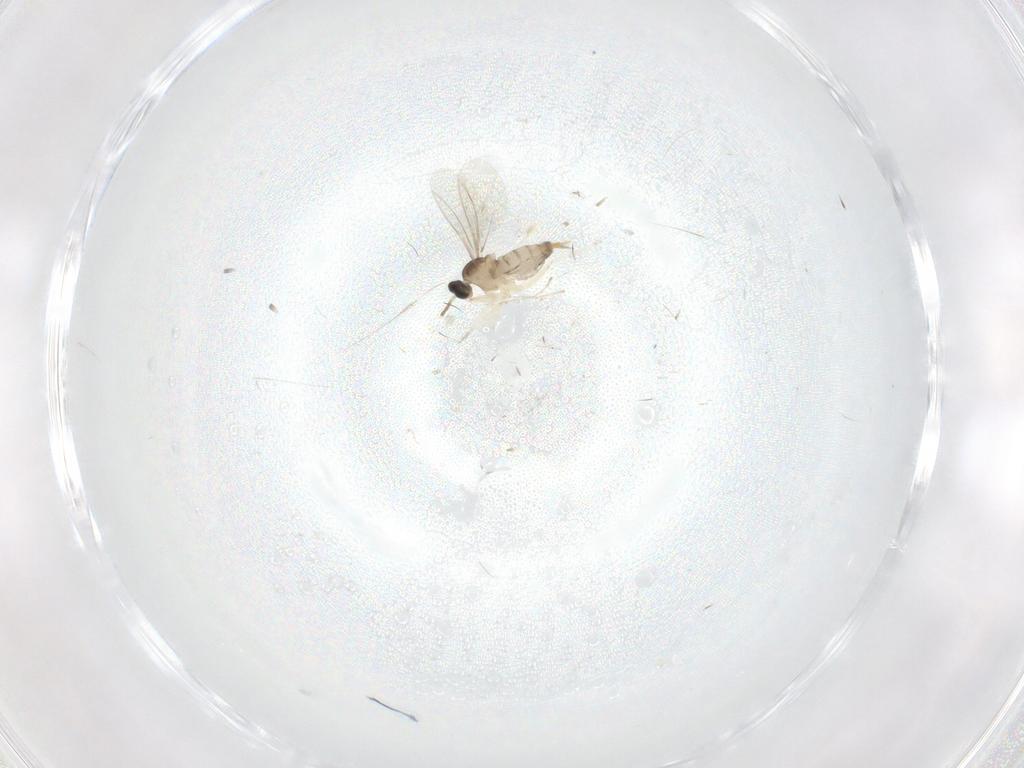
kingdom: Animalia
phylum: Arthropoda
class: Insecta
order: Diptera
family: Cecidomyiidae
